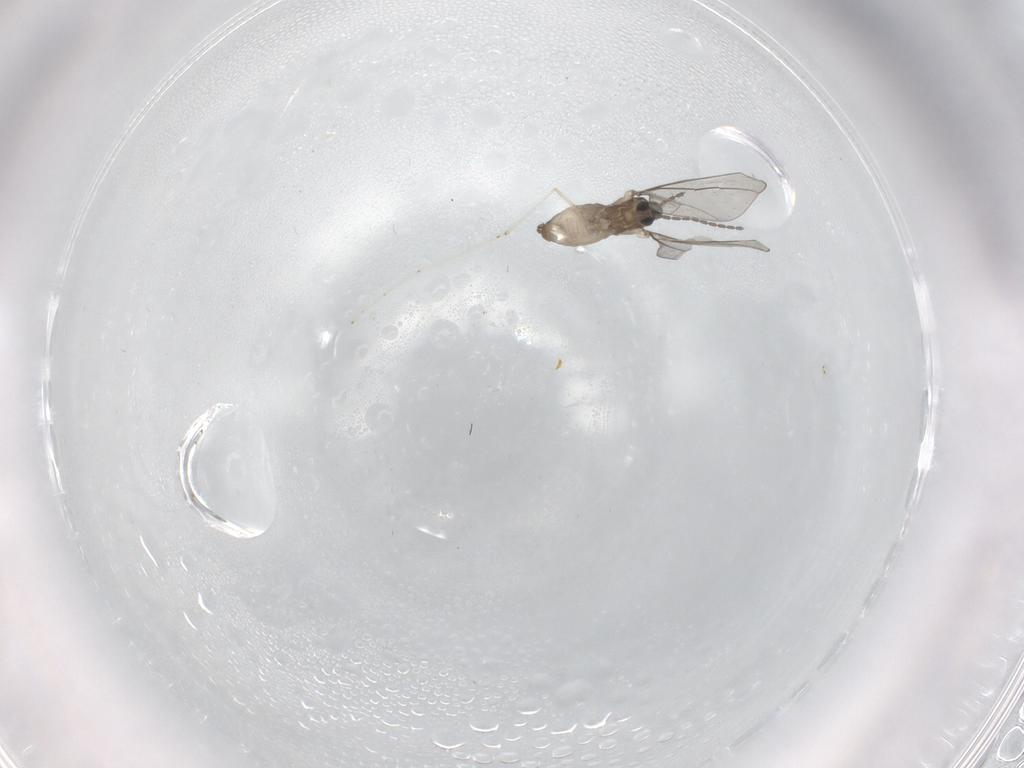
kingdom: Animalia
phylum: Arthropoda
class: Insecta
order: Diptera
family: Cecidomyiidae
